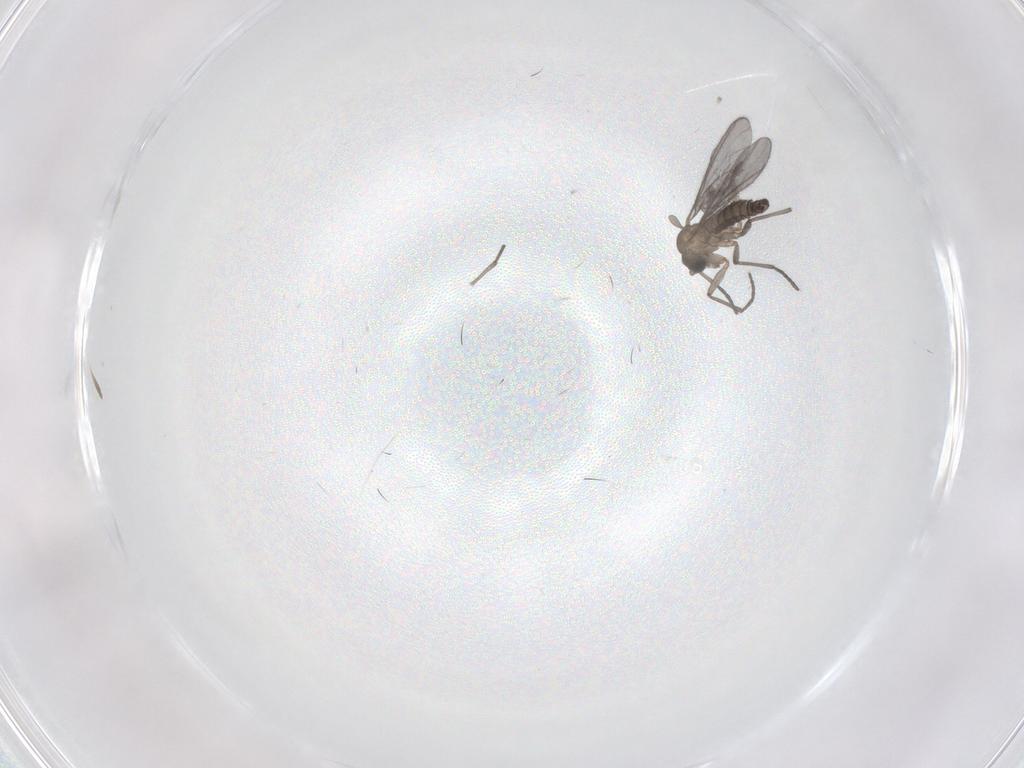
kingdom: Animalia
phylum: Arthropoda
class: Insecta
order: Diptera
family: Sciaridae
